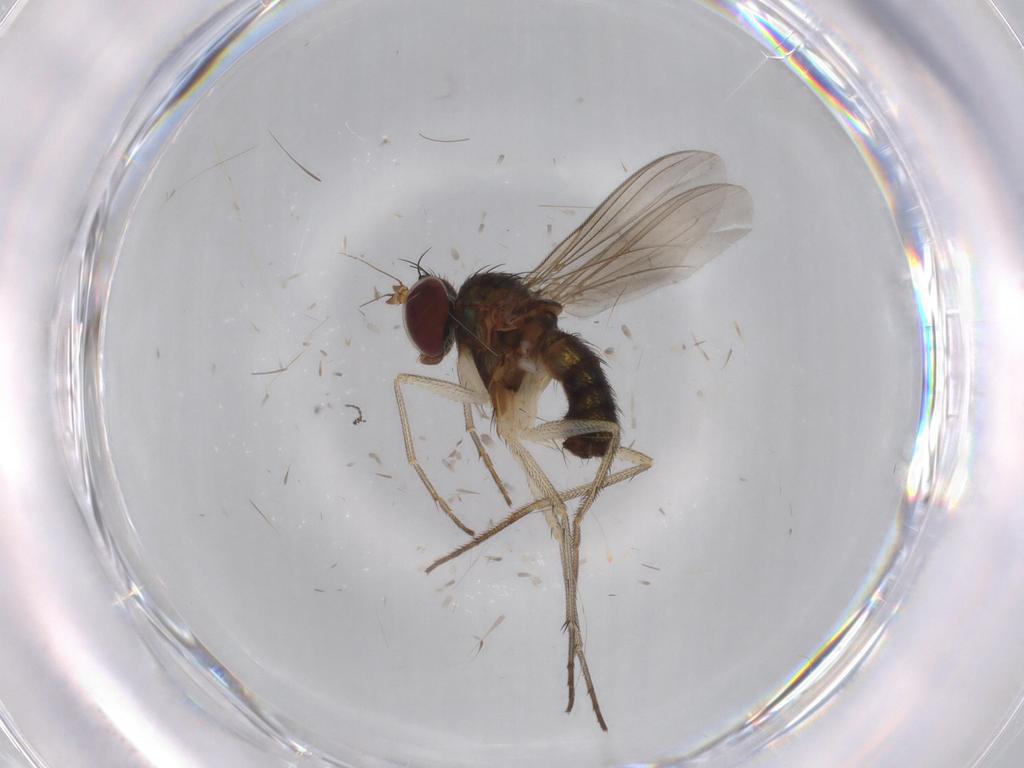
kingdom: Animalia
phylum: Arthropoda
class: Insecta
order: Diptera
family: Dolichopodidae
